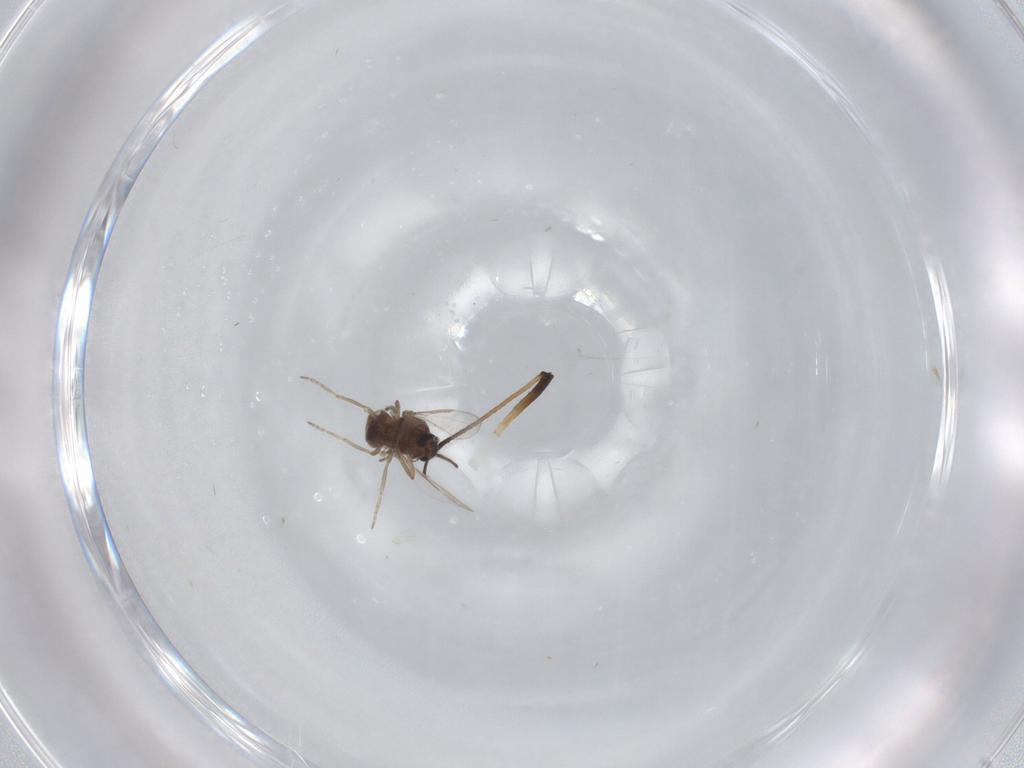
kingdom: Animalia
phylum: Arthropoda
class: Insecta
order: Diptera
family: Ceratopogonidae
